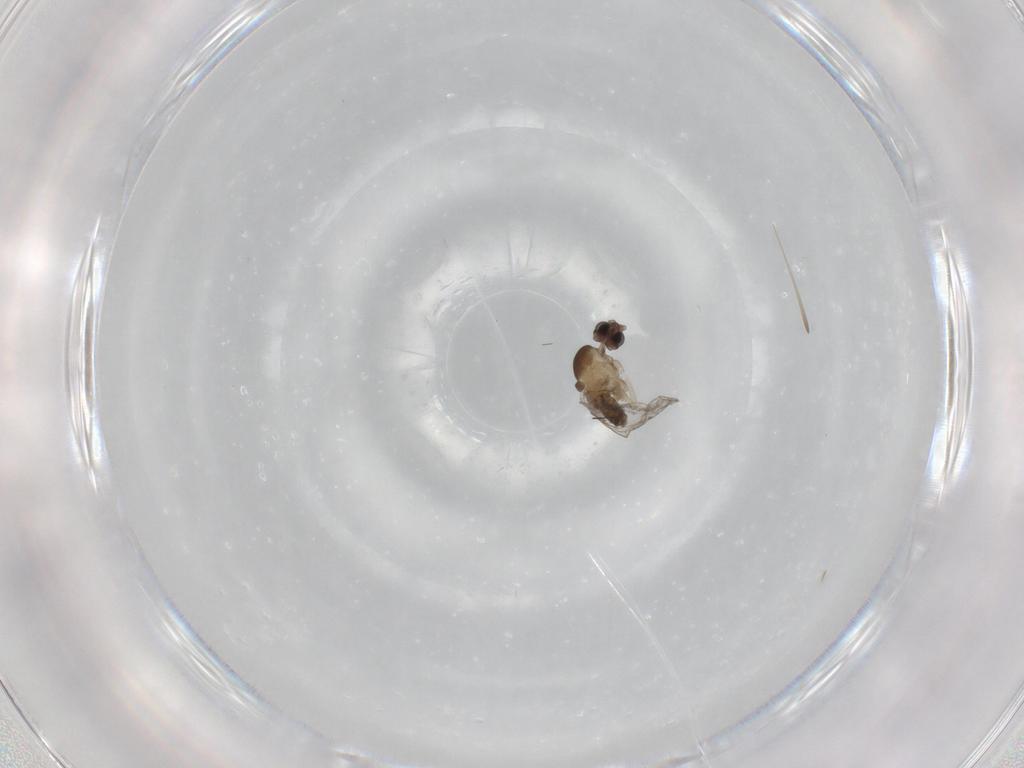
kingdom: Animalia
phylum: Arthropoda
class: Insecta
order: Diptera
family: Cecidomyiidae
